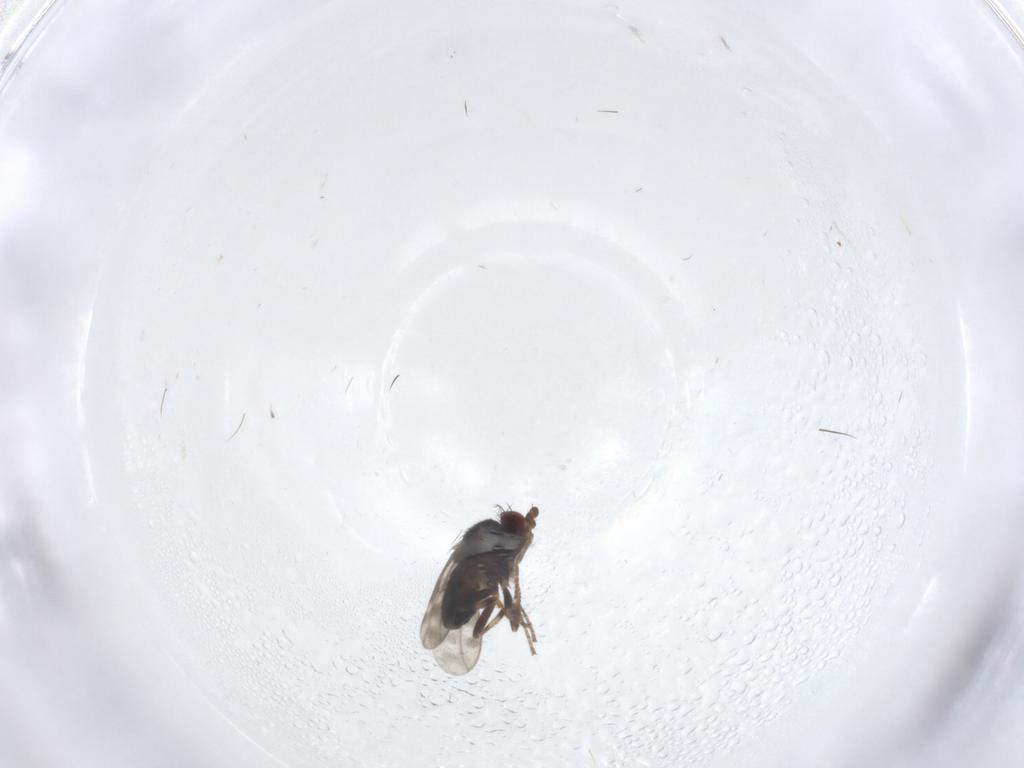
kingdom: Animalia
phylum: Arthropoda
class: Insecta
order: Diptera
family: Sphaeroceridae
